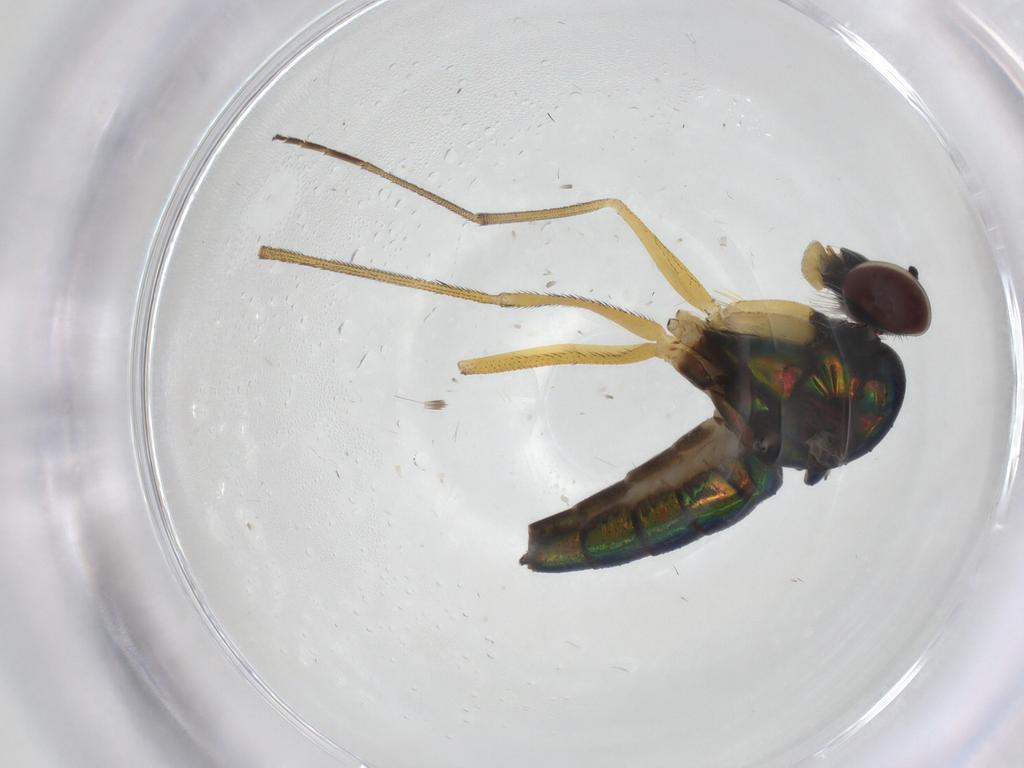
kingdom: Animalia
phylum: Arthropoda
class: Insecta
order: Diptera
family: Dolichopodidae
